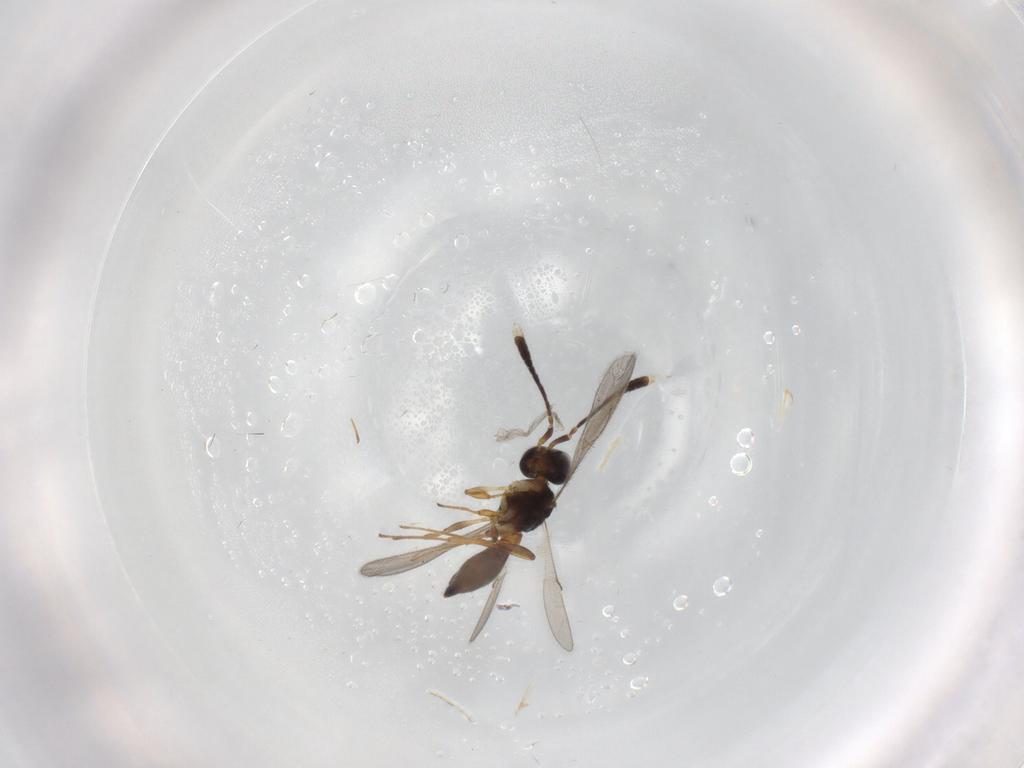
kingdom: Animalia
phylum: Arthropoda
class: Insecta
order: Hymenoptera
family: Scelionidae
